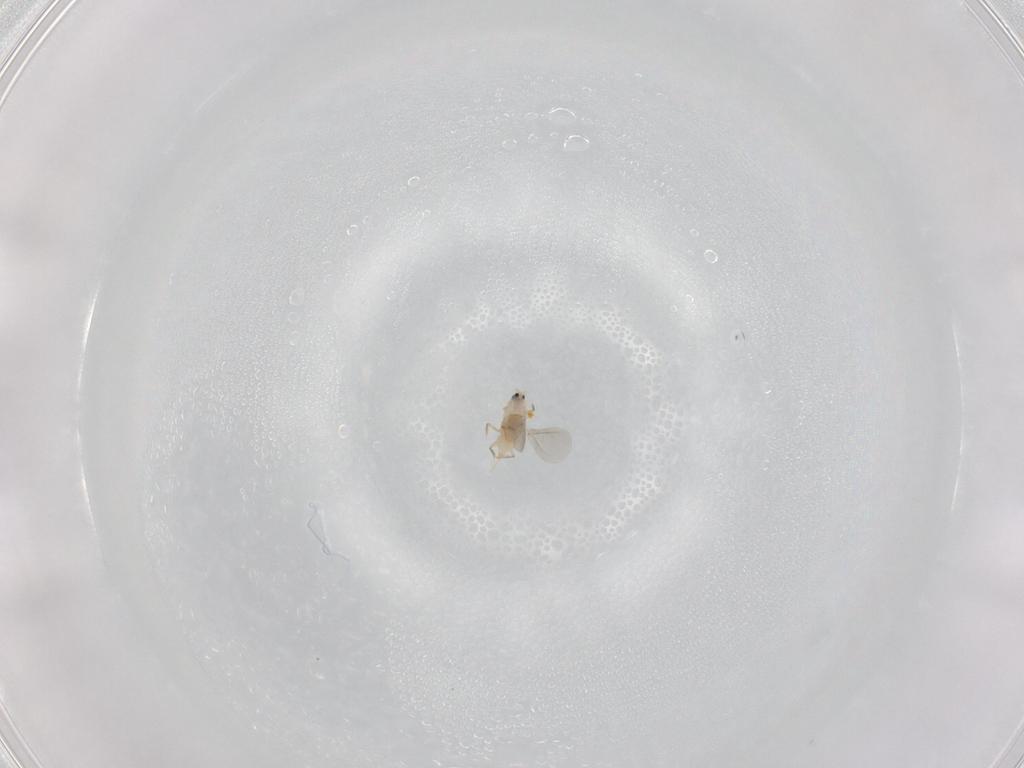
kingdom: Animalia
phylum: Arthropoda
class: Insecta
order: Hemiptera
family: Diaspididae
